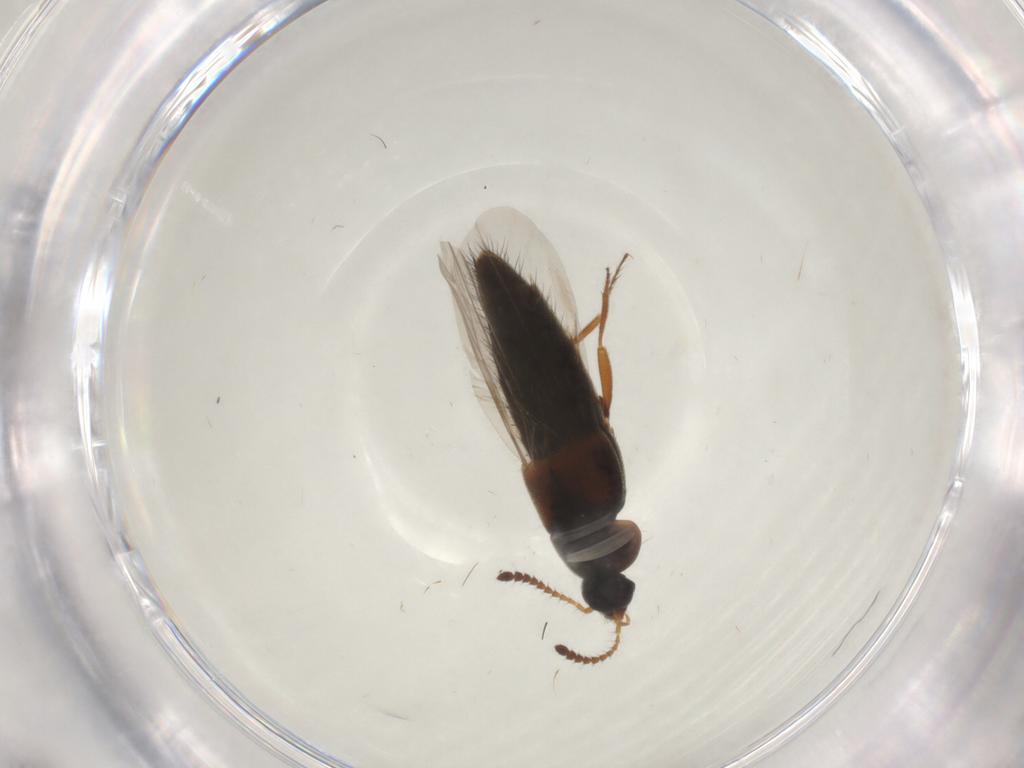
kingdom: Animalia
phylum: Arthropoda
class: Insecta
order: Coleoptera
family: Staphylinidae
